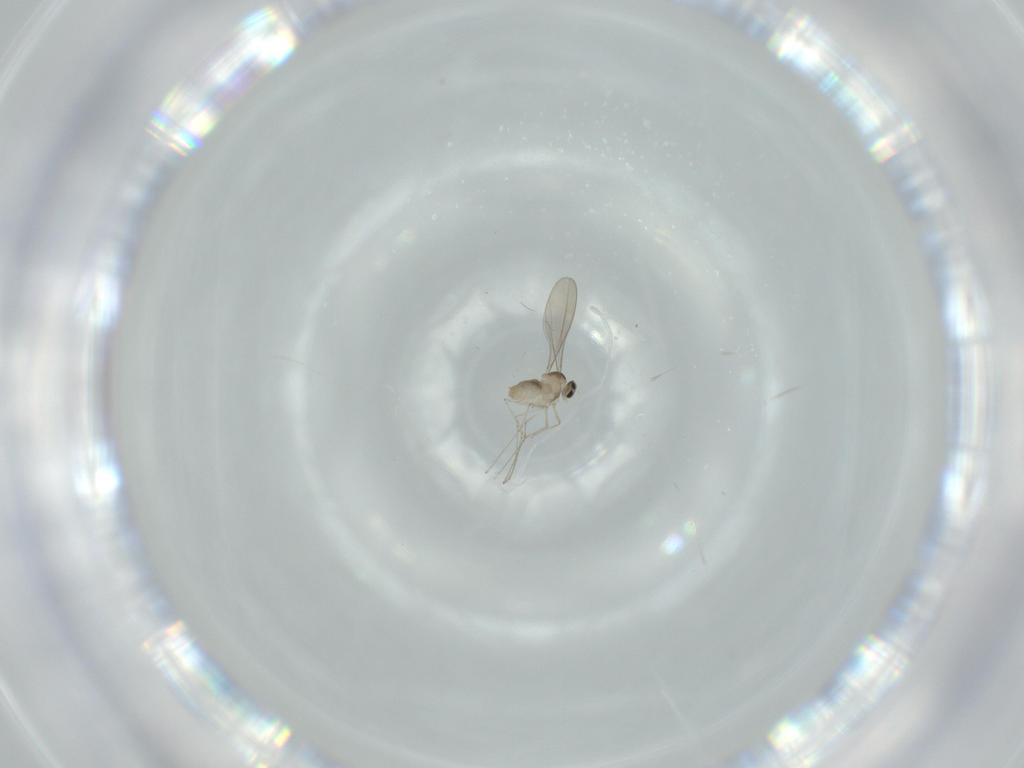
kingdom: Animalia
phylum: Arthropoda
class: Insecta
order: Diptera
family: Cecidomyiidae
